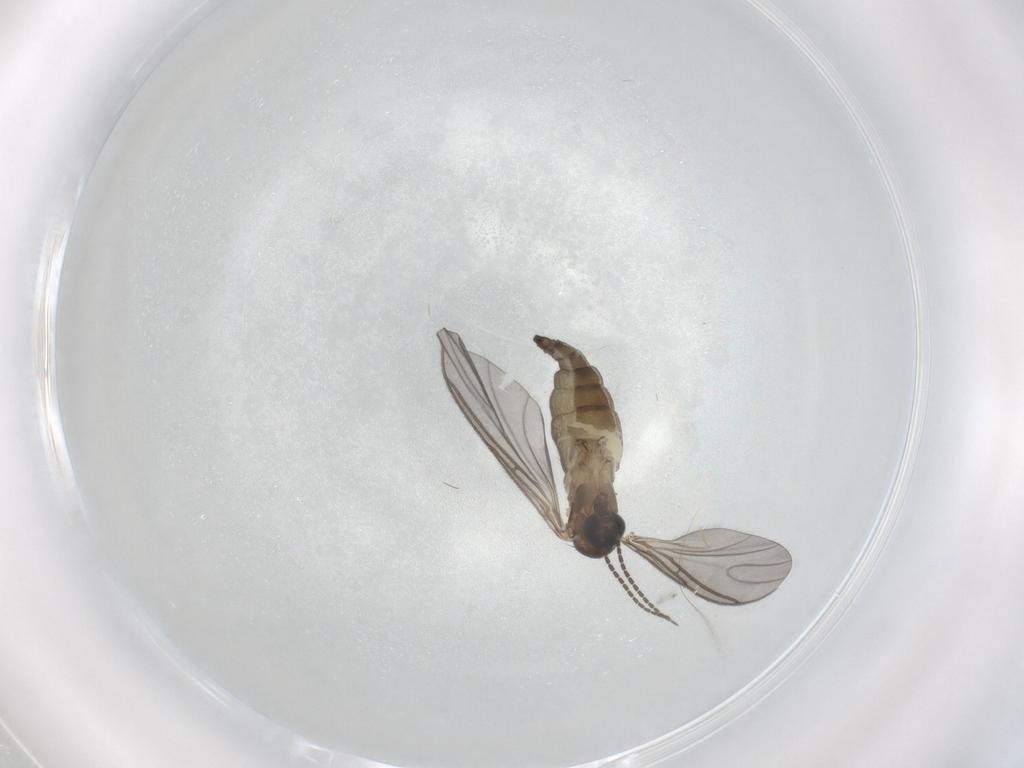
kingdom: Animalia
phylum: Arthropoda
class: Insecta
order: Diptera
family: Sciaridae
